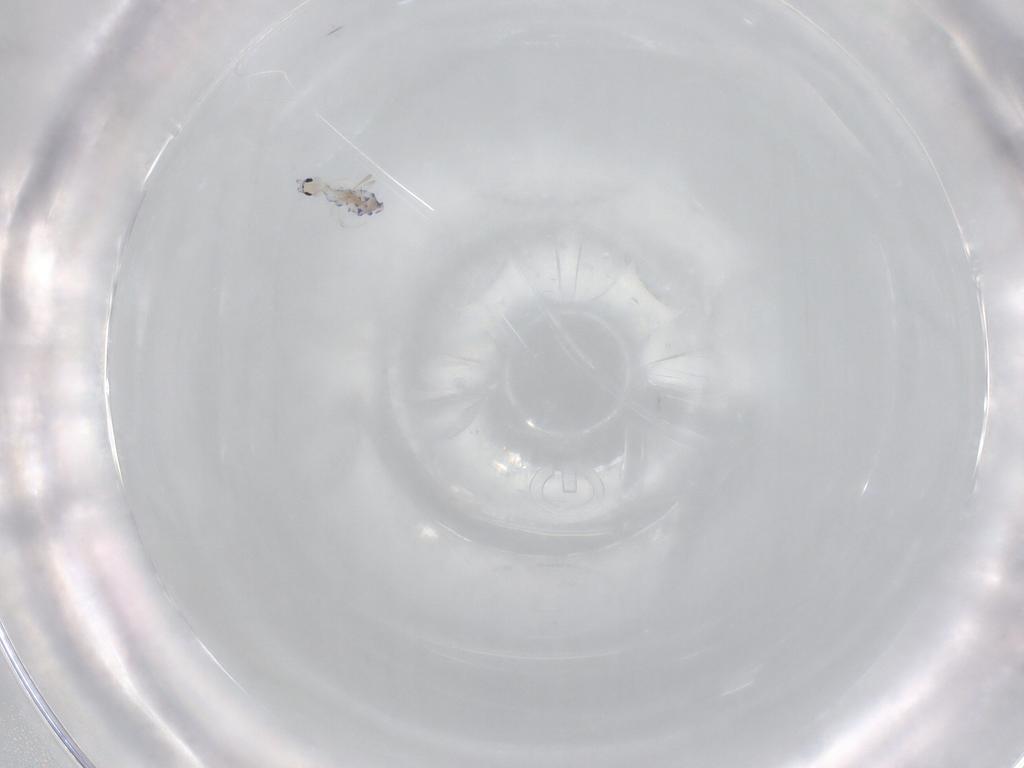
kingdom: Animalia
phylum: Arthropoda
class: Collembola
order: Entomobryomorpha
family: Entomobryidae
